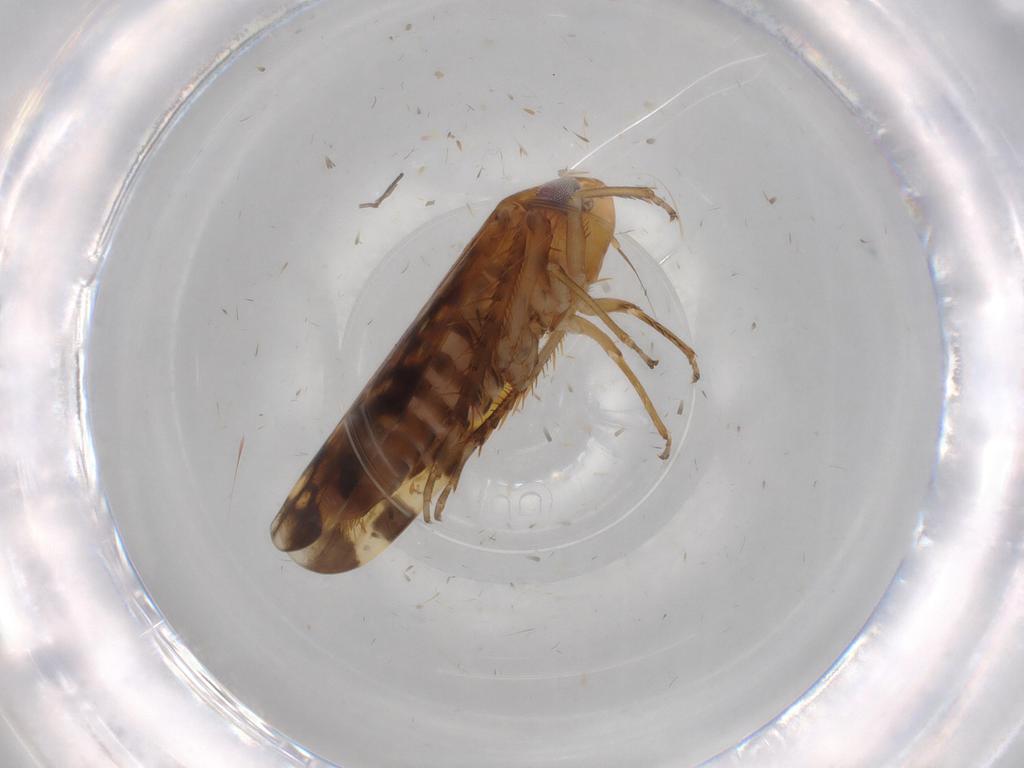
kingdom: Animalia
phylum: Arthropoda
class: Insecta
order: Hemiptera
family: Cicadellidae
